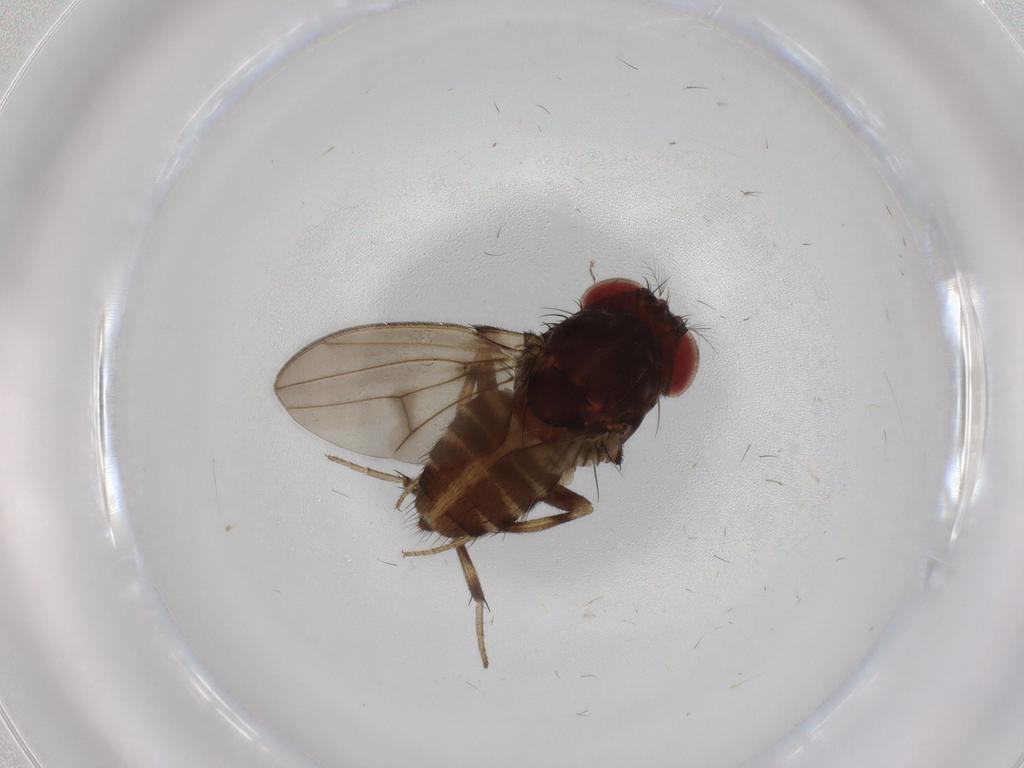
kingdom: Animalia
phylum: Arthropoda
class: Insecta
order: Diptera
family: Drosophilidae
